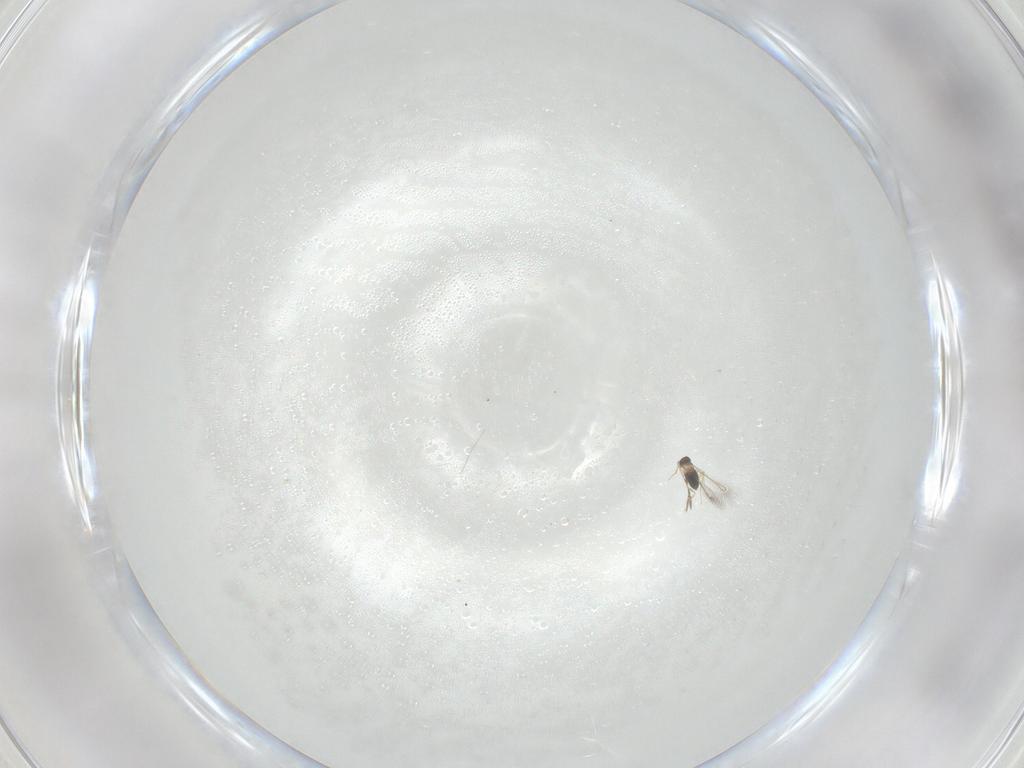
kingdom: Animalia
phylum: Arthropoda
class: Insecta
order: Hymenoptera
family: Mymaridae
